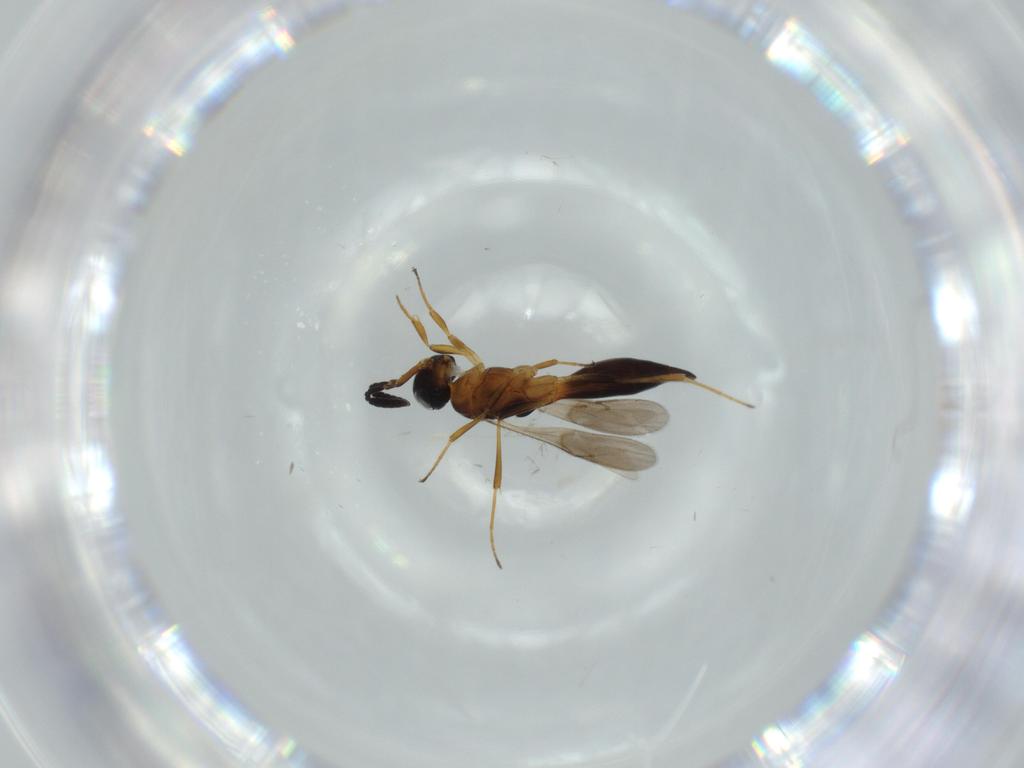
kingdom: Animalia
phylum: Arthropoda
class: Insecta
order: Hymenoptera
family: Scelionidae
